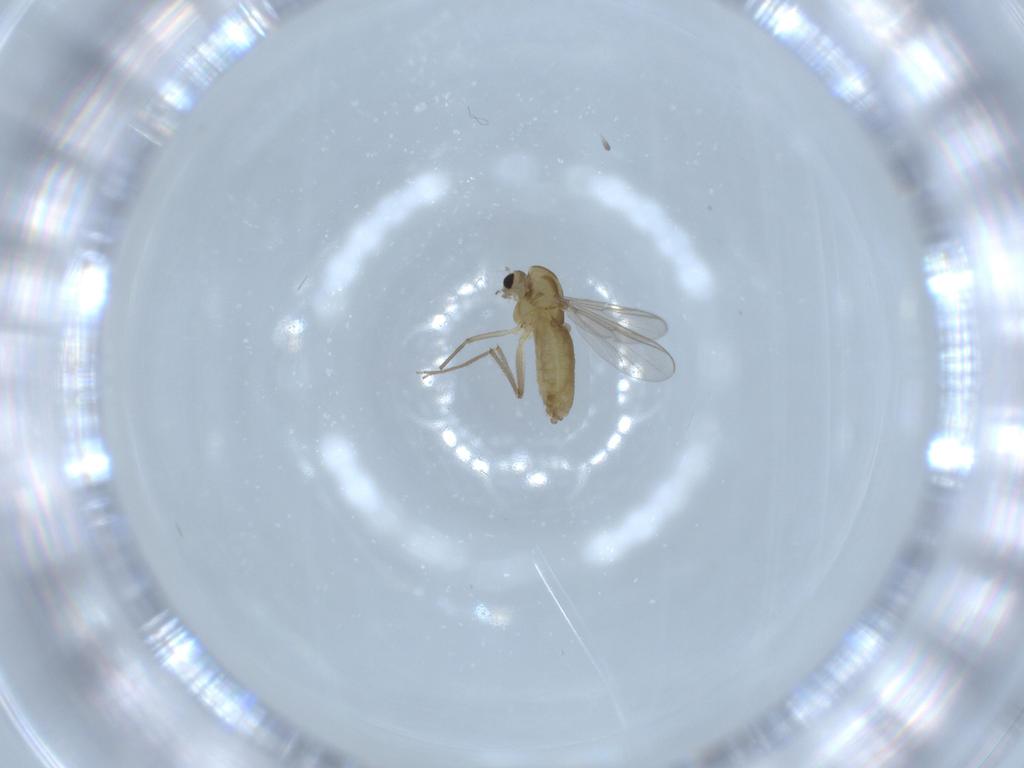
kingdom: Animalia
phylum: Arthropoda
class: Insecta
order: Diptera
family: Chironomidae
